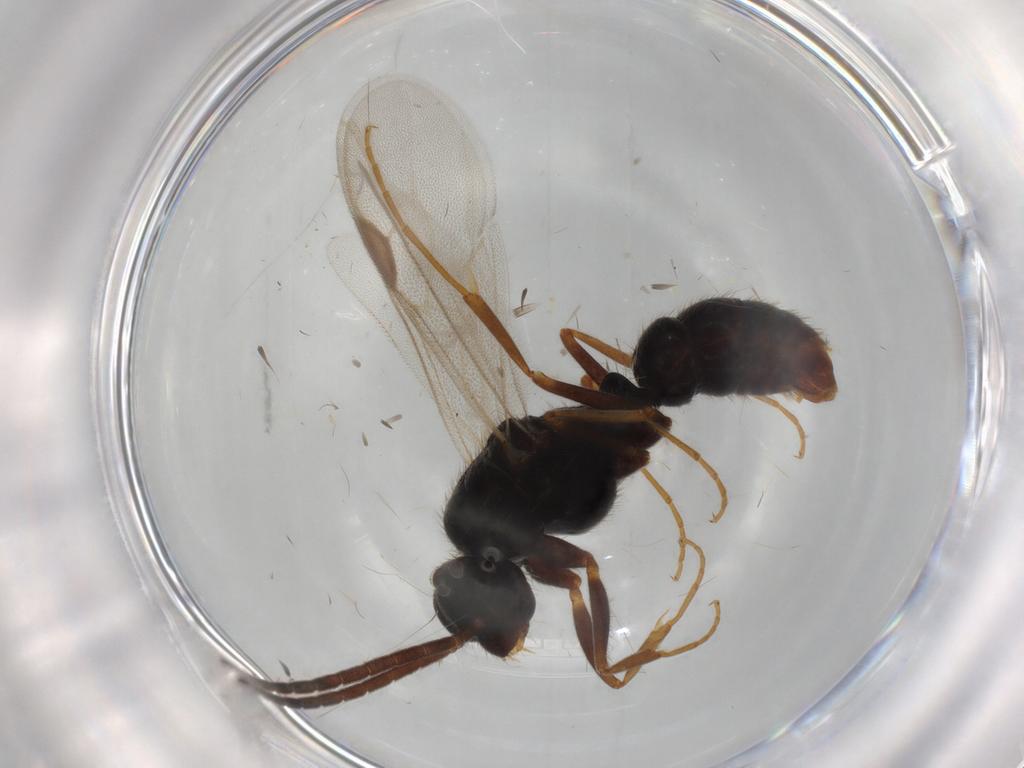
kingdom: Animalia
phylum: Arthropoda
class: Insecta
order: Hymenoptera
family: Formicidae
